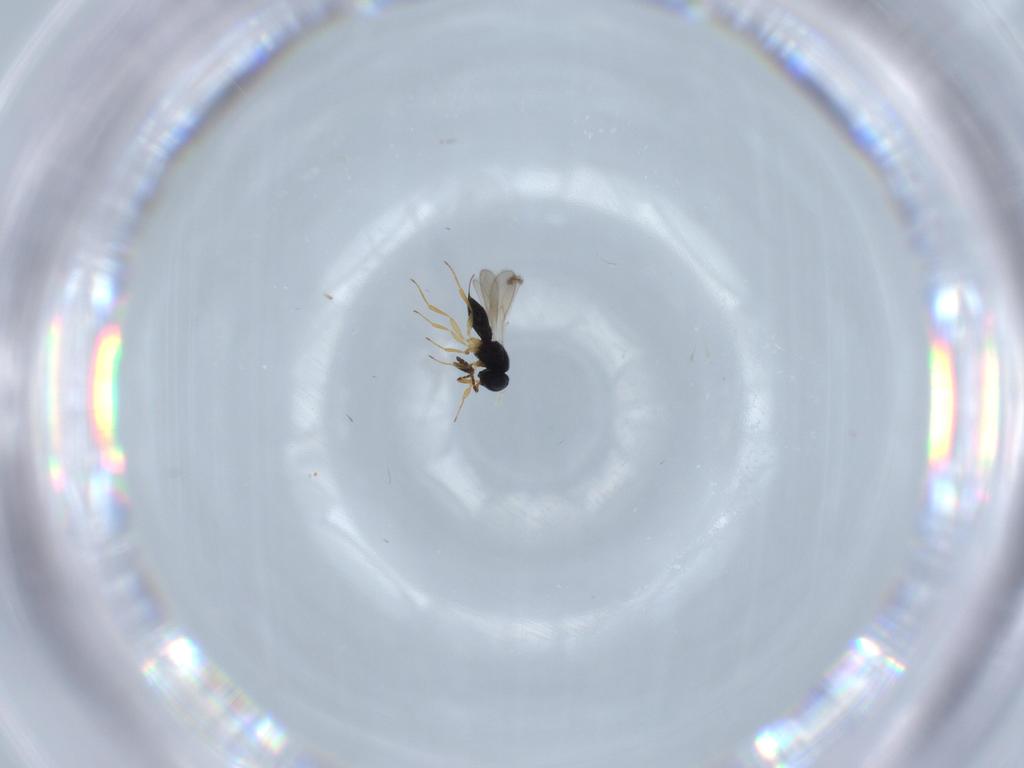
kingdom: Animalia
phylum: Arthropoda
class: Insecta
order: Hymenoptera
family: Scelionidae
